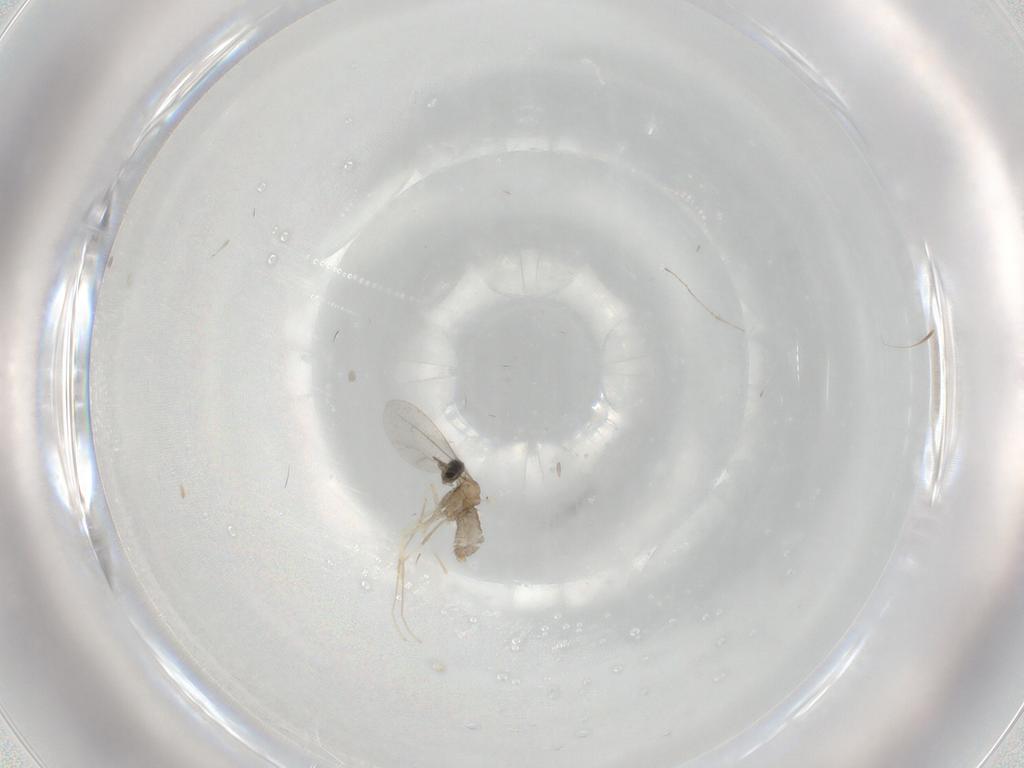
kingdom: Animalia
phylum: Arthropoda
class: Insecta
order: Diptera
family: Cecidomyiidae
